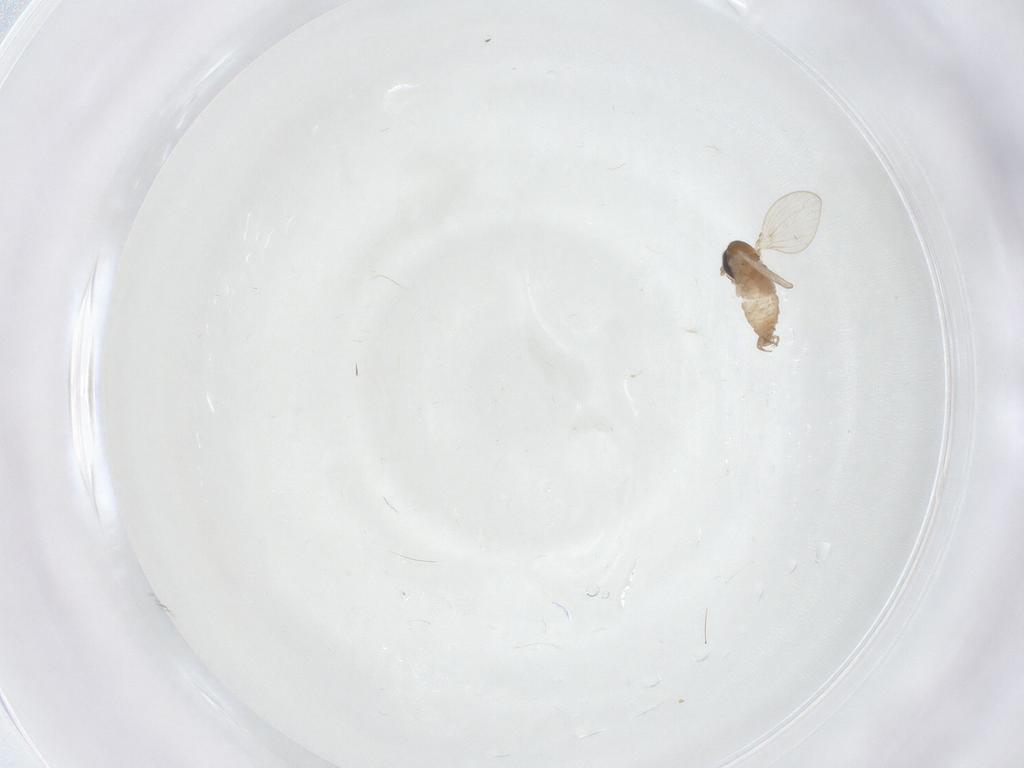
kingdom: Animalia
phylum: Arthropoda
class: Insecta
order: Diptera
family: Psychodidae
